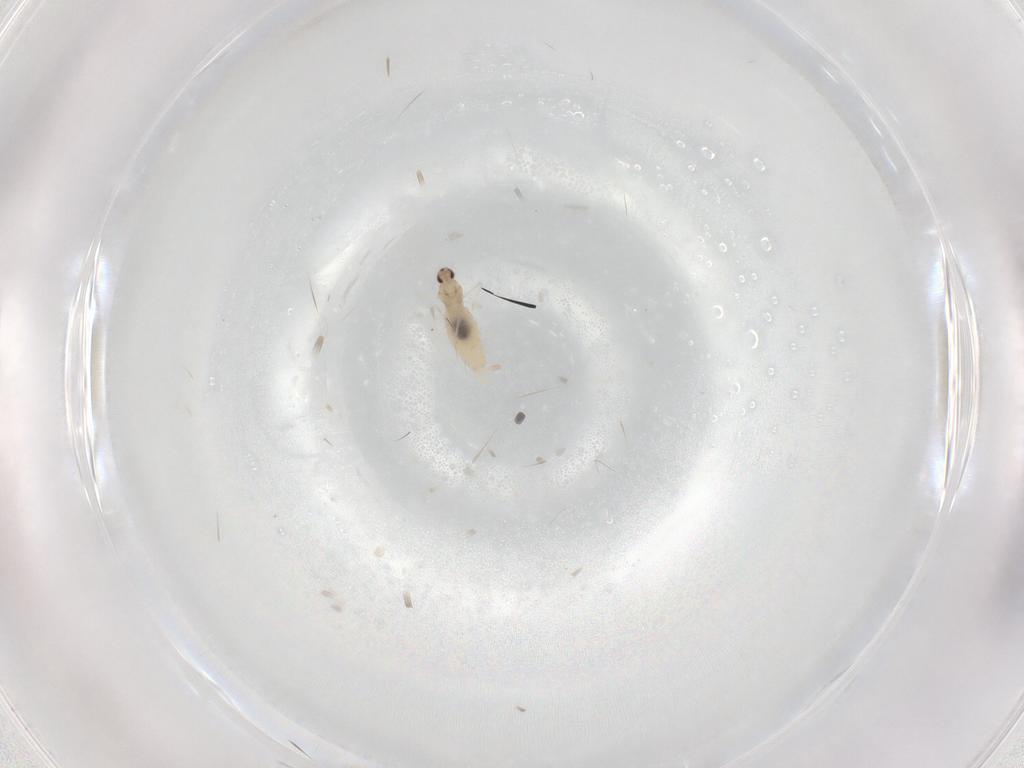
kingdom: Animalia
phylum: Arthropoda
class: Insecta
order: Diptera
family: Cecidomyiidae
